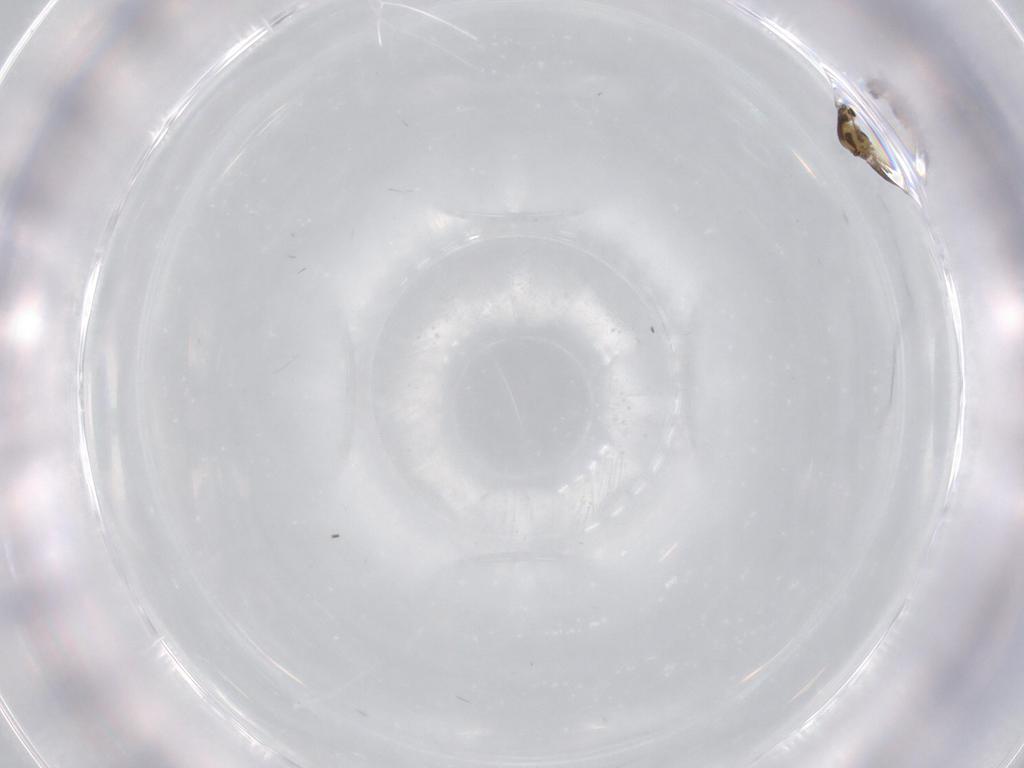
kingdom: Animalia
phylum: Arthropoda
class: Insecta
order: Diptera
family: Chironomidae
